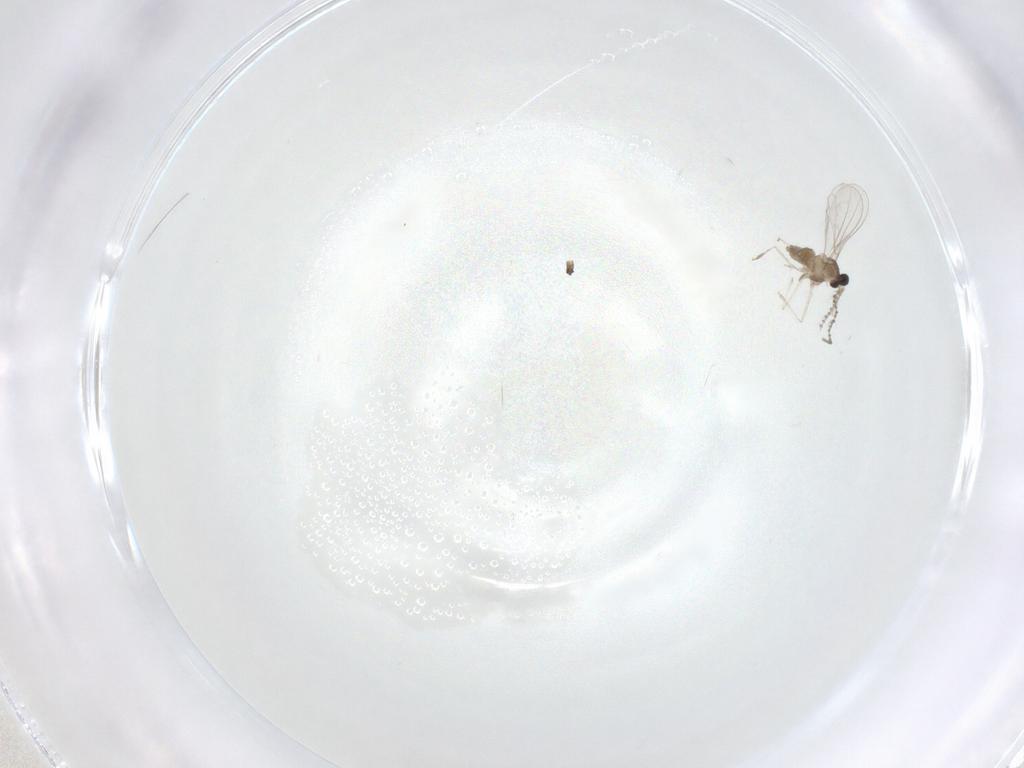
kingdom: Animalia
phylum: Arthropoda
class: Insecta
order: Diptera
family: Cecidomyiidae
